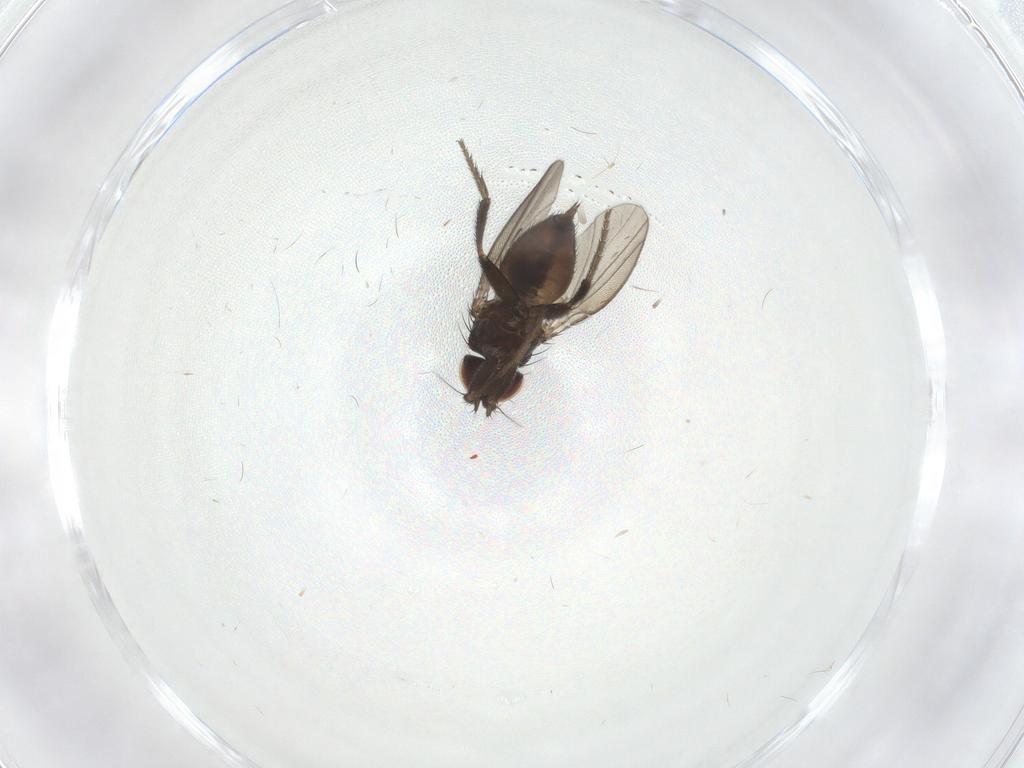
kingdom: Animalia
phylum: Arthropoda
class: Insecta
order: Diptera
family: Milichiidae
